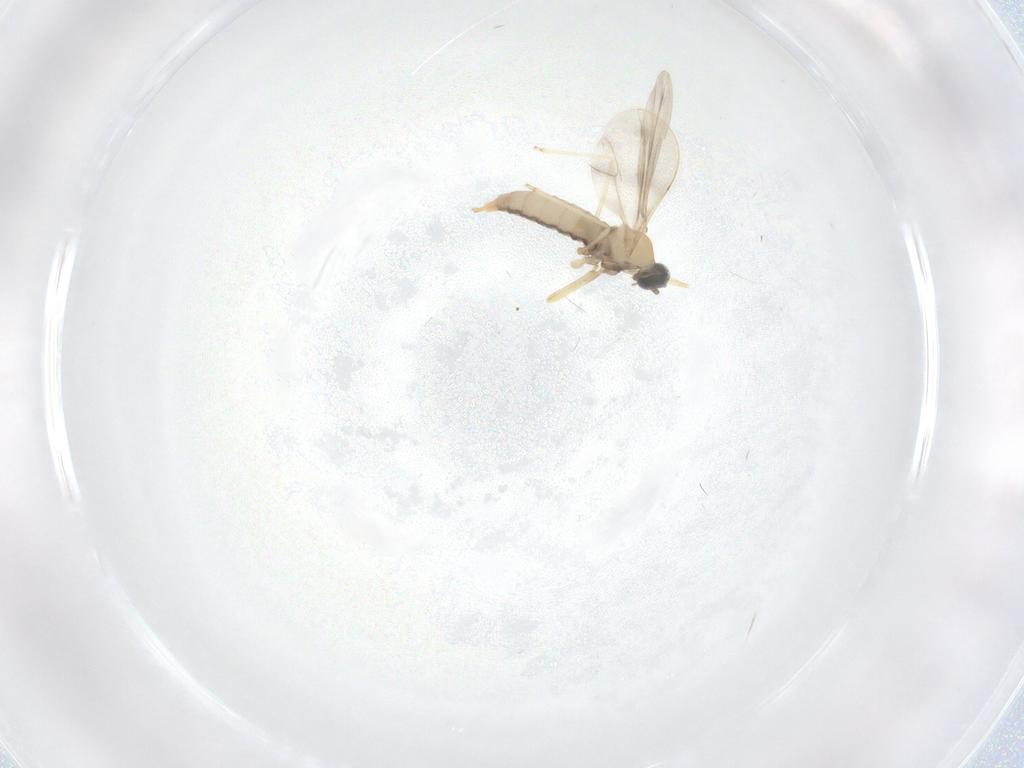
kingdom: Animalia
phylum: Arthropoda
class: Insecta
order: Diptera
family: Cecidomyiidae
